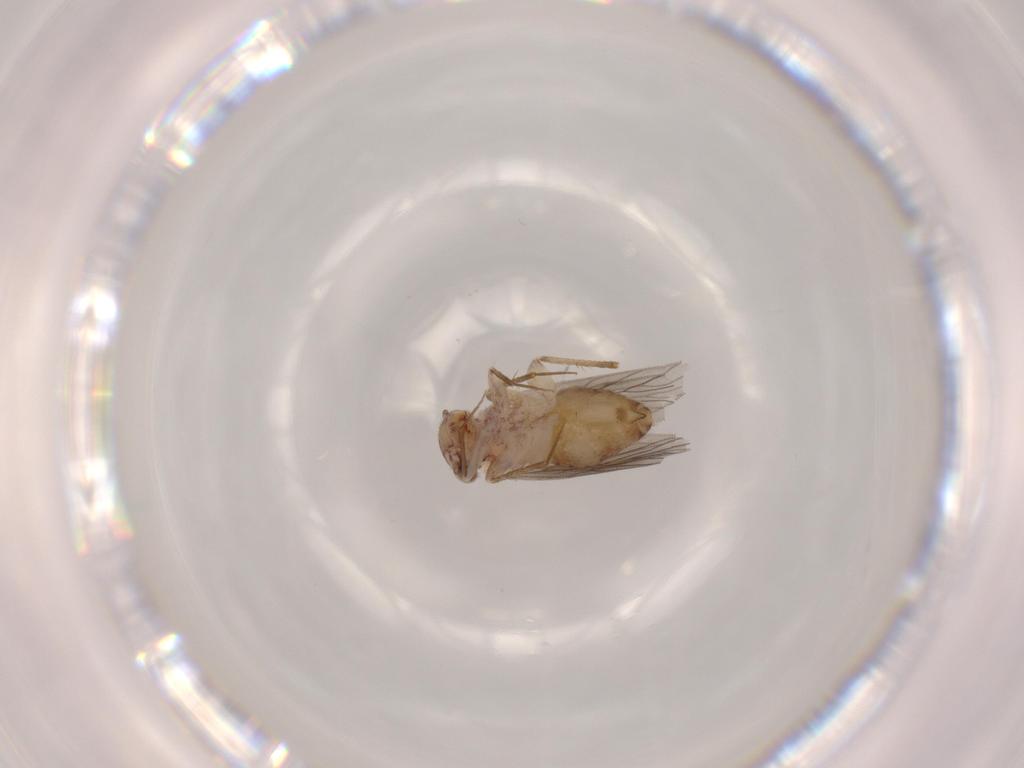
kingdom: Animalia
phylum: Arthropoda
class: Insecta
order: Psocodea
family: Lepidopsocidae
